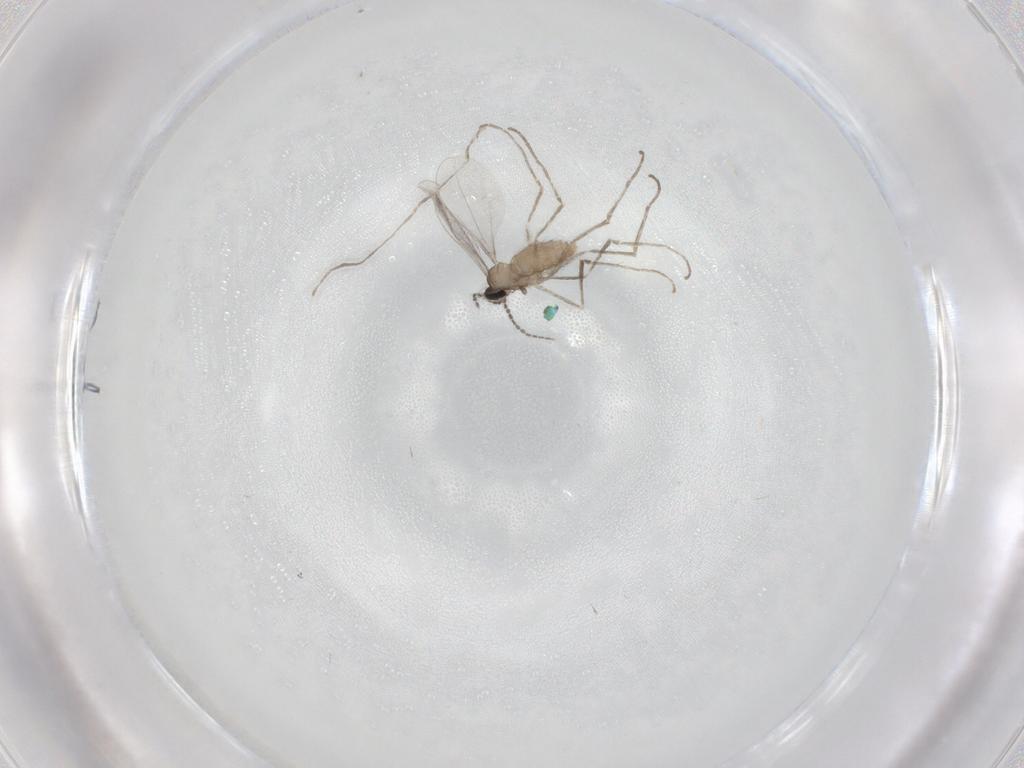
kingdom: Animalia
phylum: Arthropoda
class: Insecta
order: Diptera
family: Cecidomyiidae
